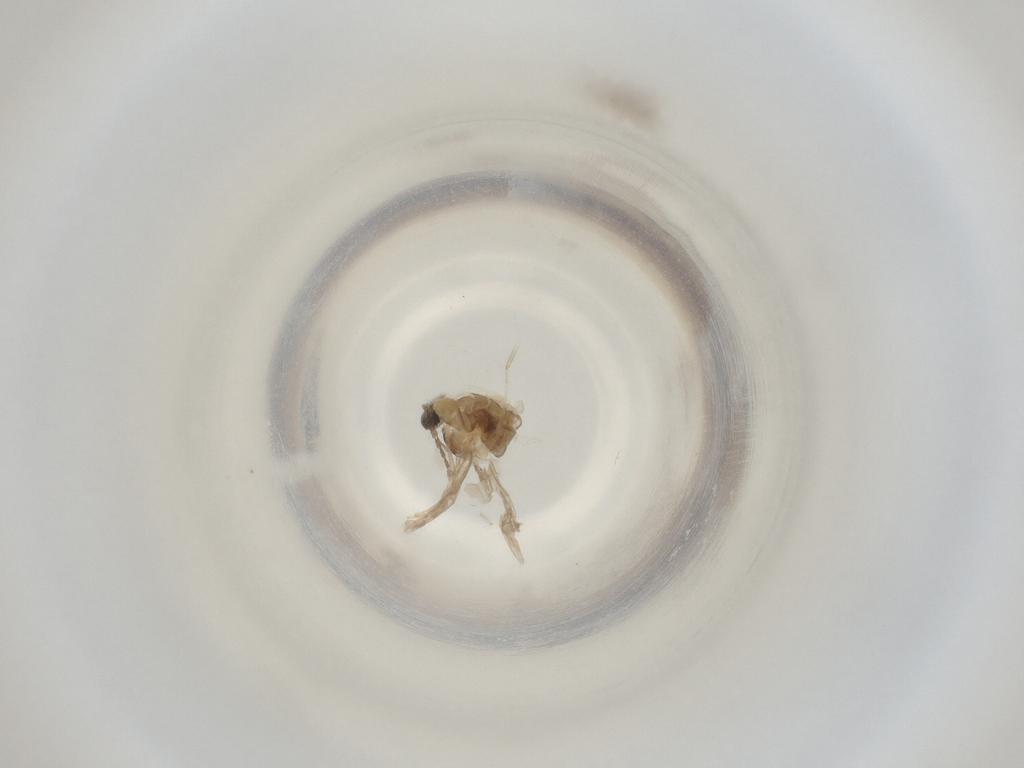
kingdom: Animalia
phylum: Arthropoda
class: Insecta
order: Diptera
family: Cecidomyiidae
